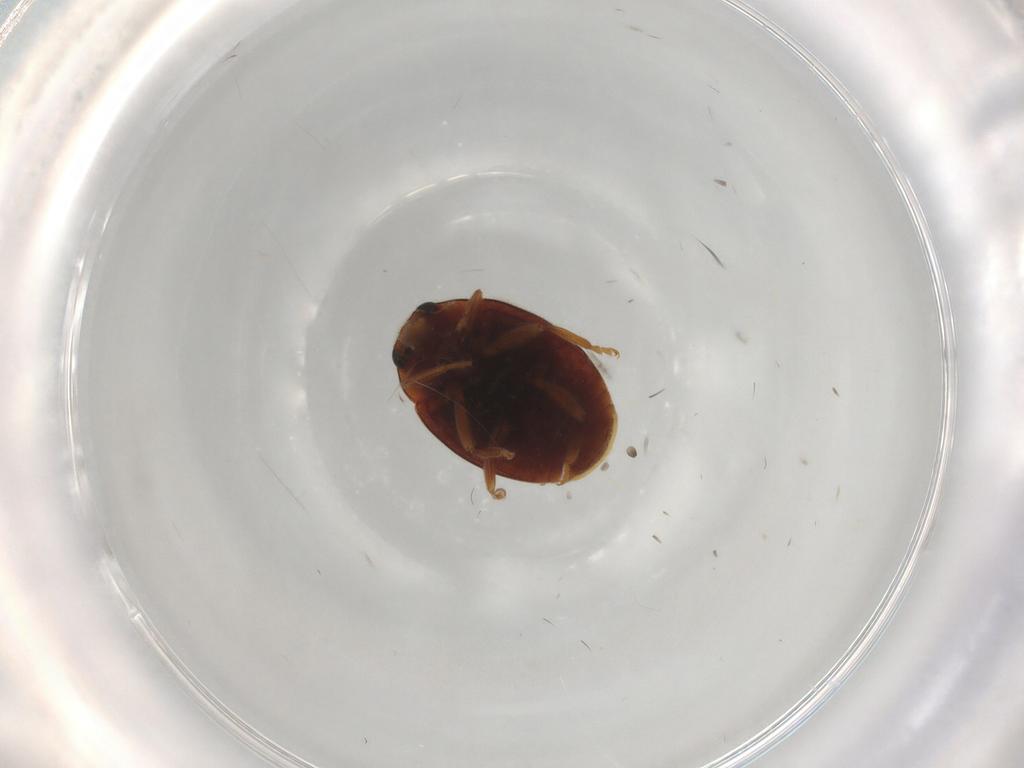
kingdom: Animalia
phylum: Arthropoda
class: Insecta
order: Coleoptera
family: Coccinellidae
